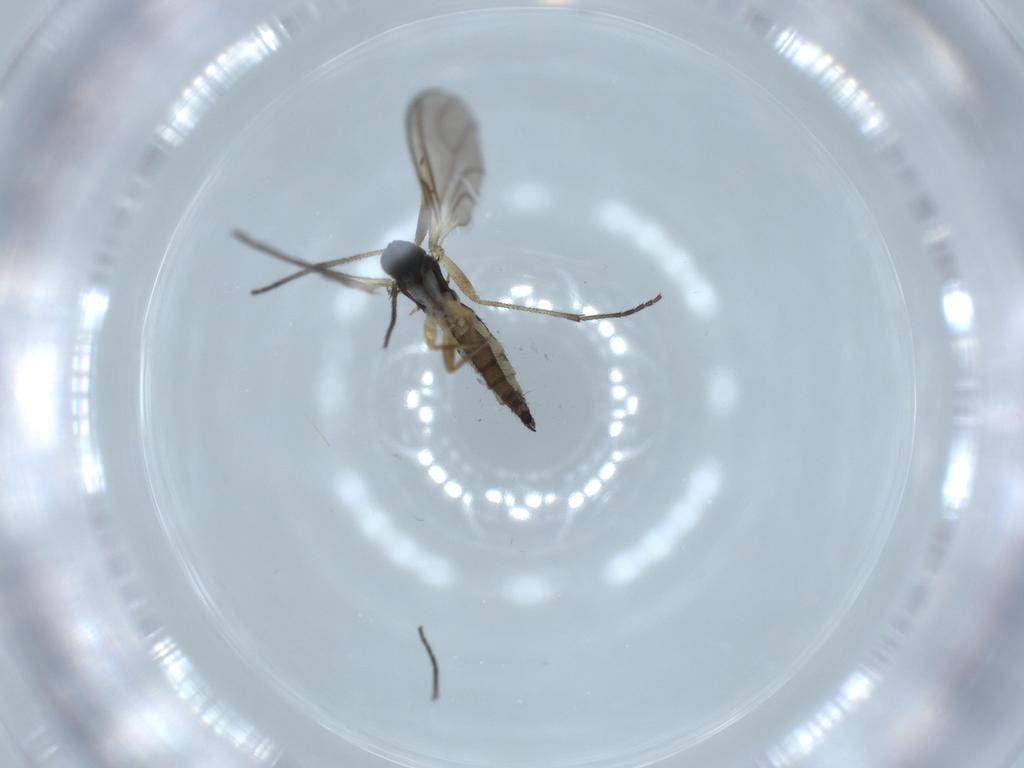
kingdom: Animalia
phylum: Arthropoda
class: Insecta
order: Diptera
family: Sciaridae
